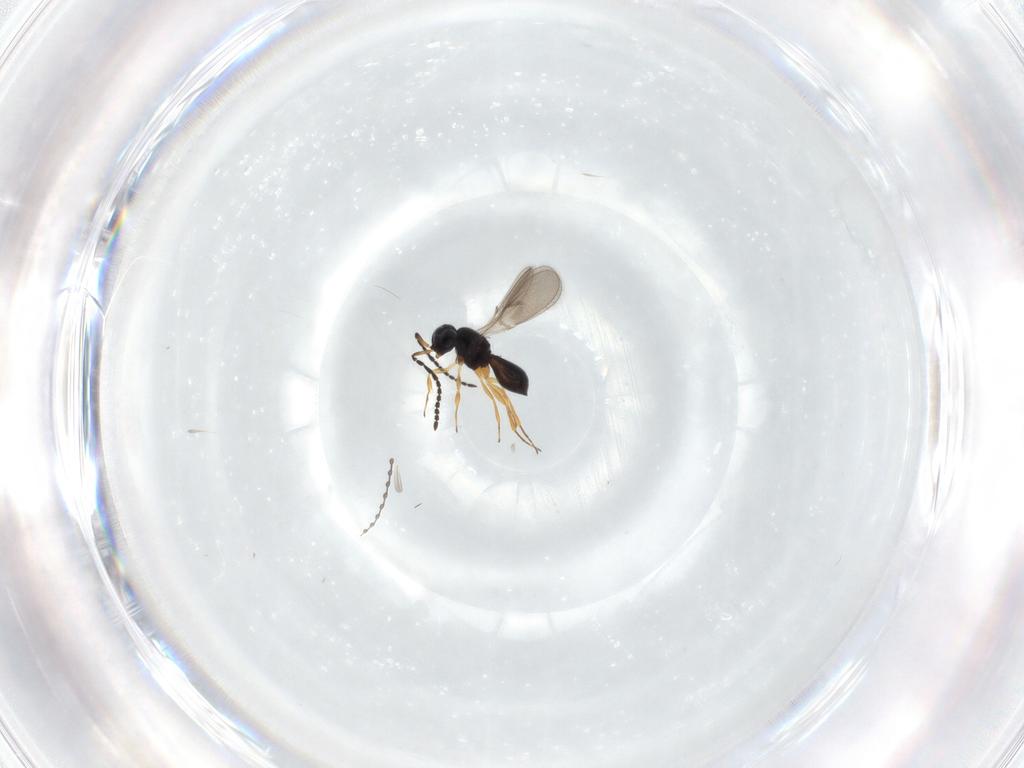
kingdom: Animalia
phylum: Arthropoda
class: Insecta
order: Hymenoptera
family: Scelionidae
